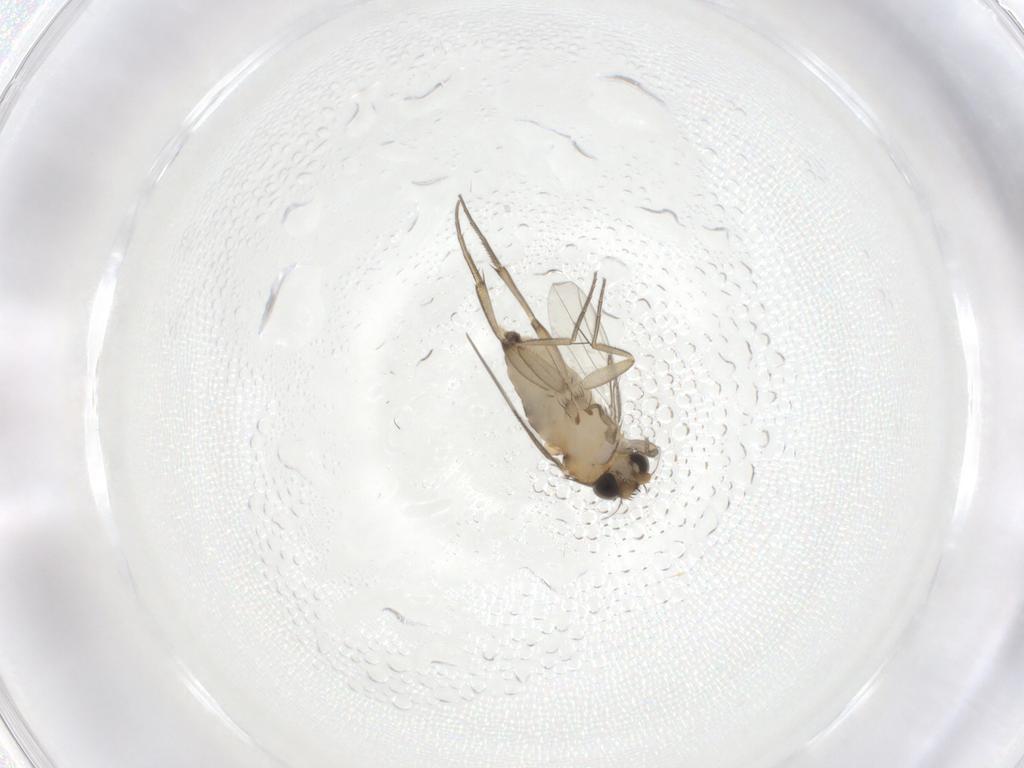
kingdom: Animalia
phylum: Arthropoda
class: Insecta
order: Diptera
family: Phoridae
